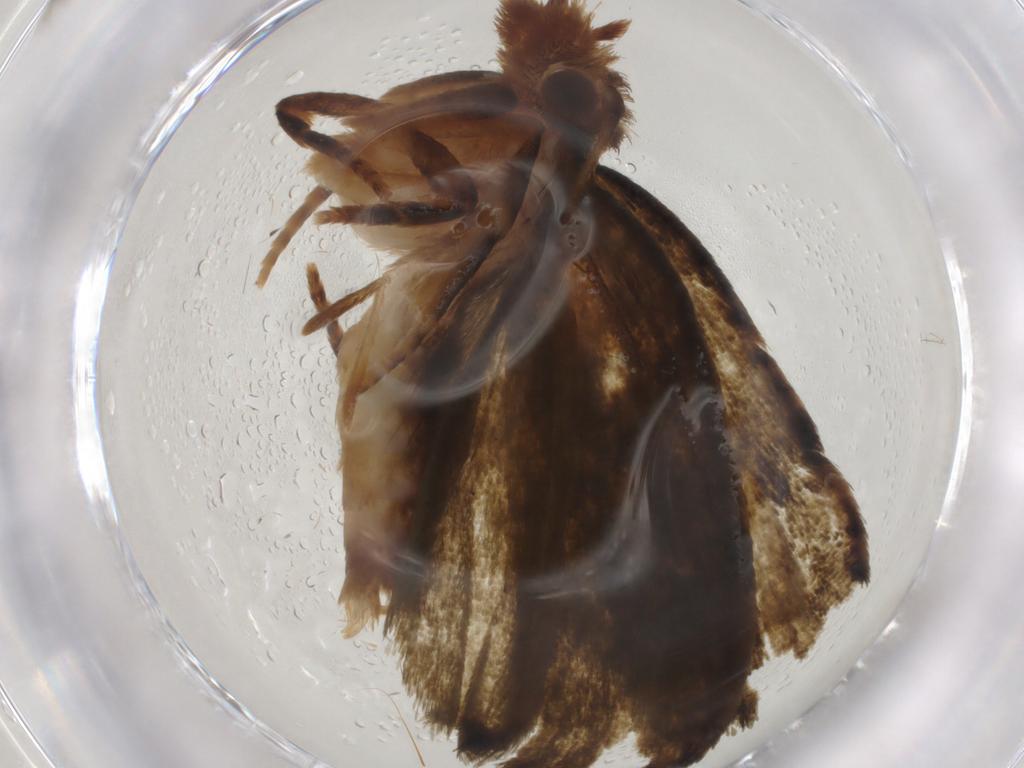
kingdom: Animalia
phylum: Arthropoda
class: Insecta
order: Lepidoptera
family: Geometridae
